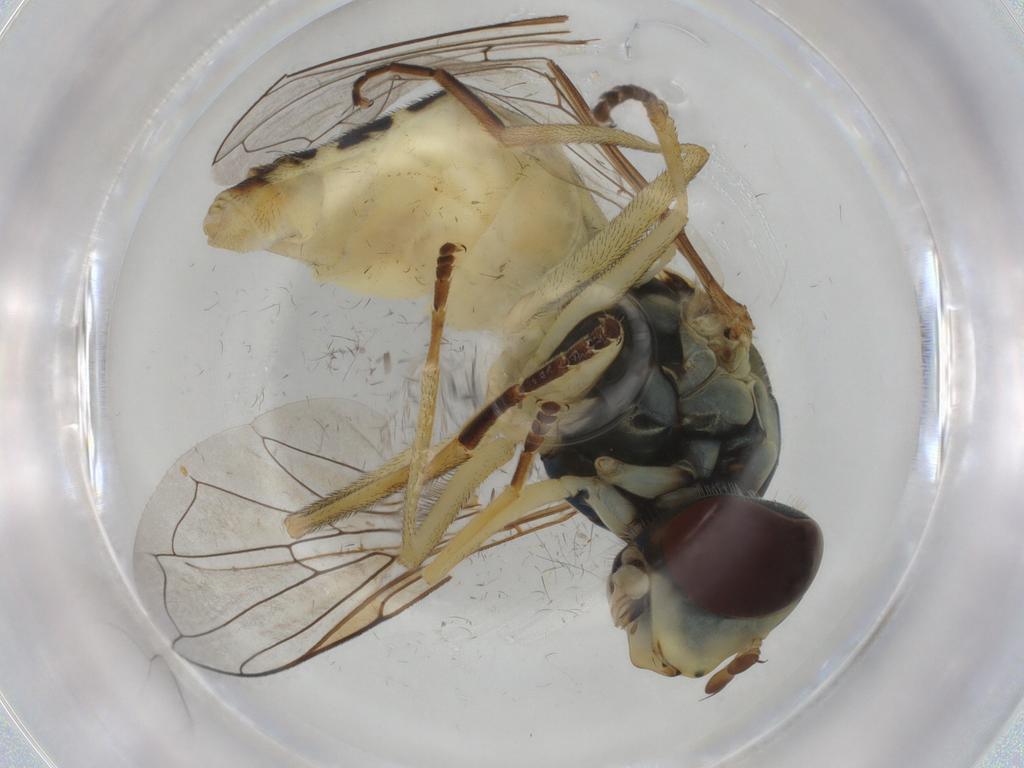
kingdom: Animalia
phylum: Arthropoda
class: Insecta
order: Diptera
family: Syrphidae
